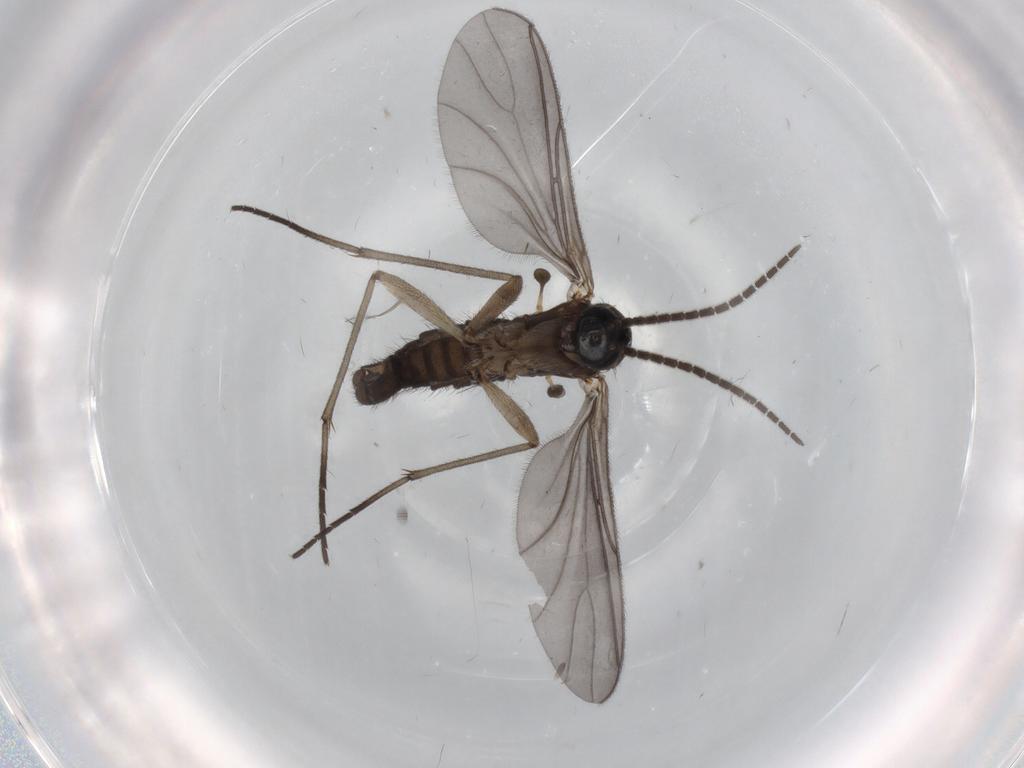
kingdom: Animalia
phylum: Arthropoda
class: Insecta
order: Diptera
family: Sciaridae
